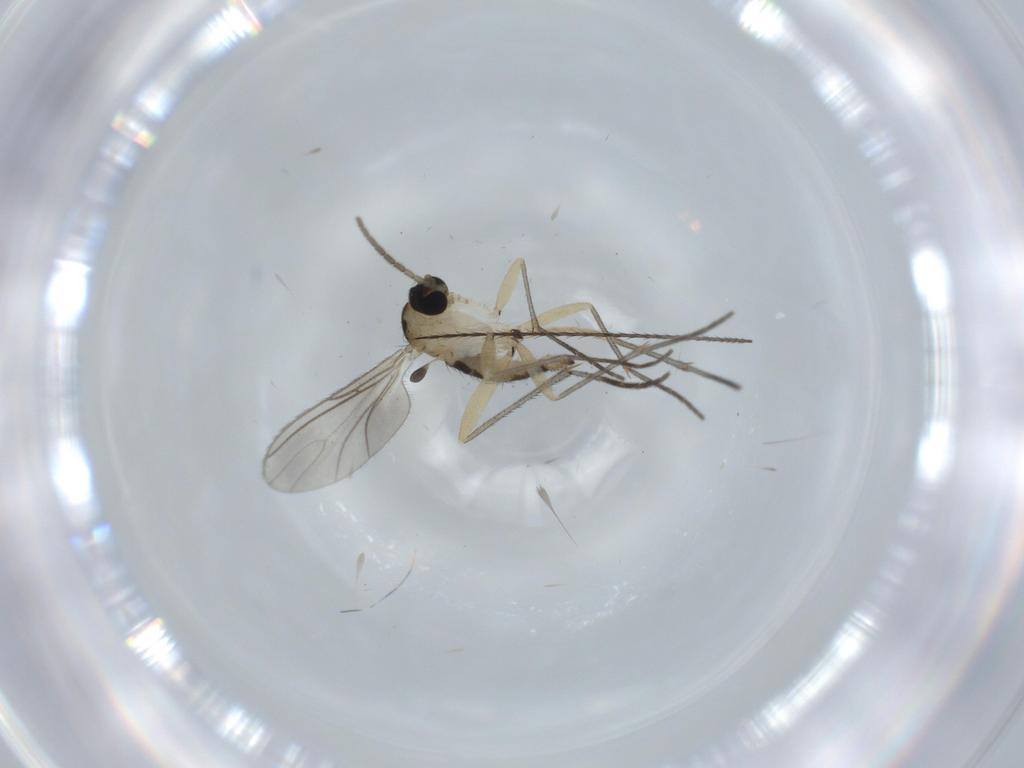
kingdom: Animalia
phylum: Arthropoda
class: Insecta
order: Diptera
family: Sciaridae
